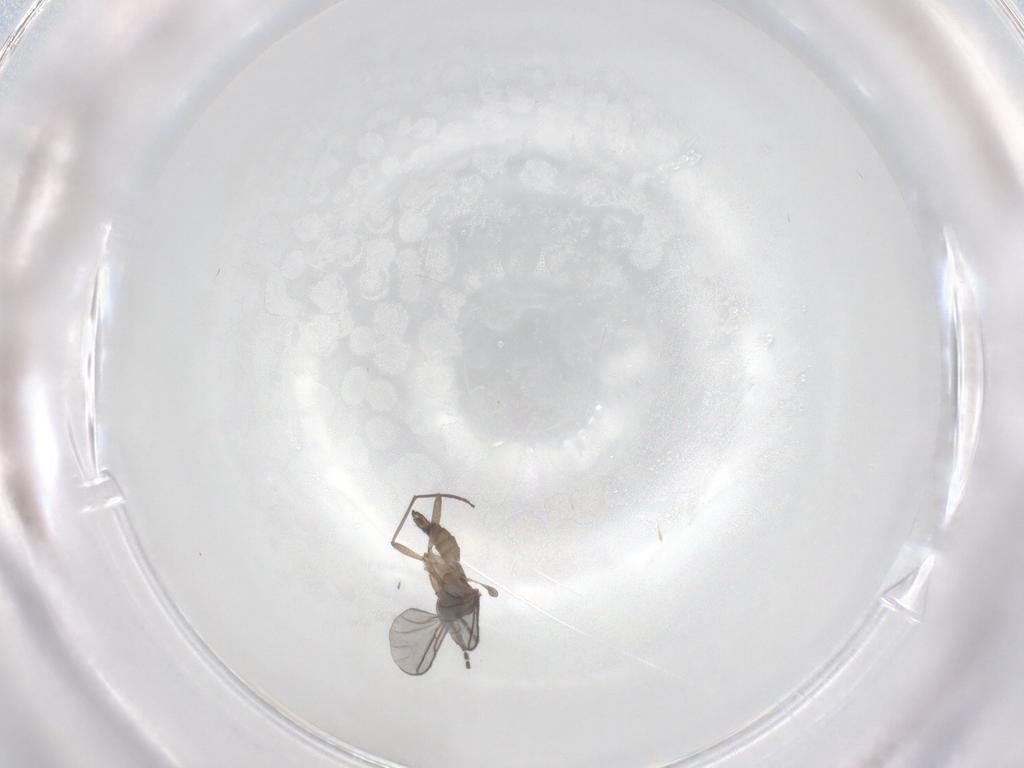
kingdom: Animalia
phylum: Arthropoda
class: Insecta
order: Diptera
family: Sciaridae
